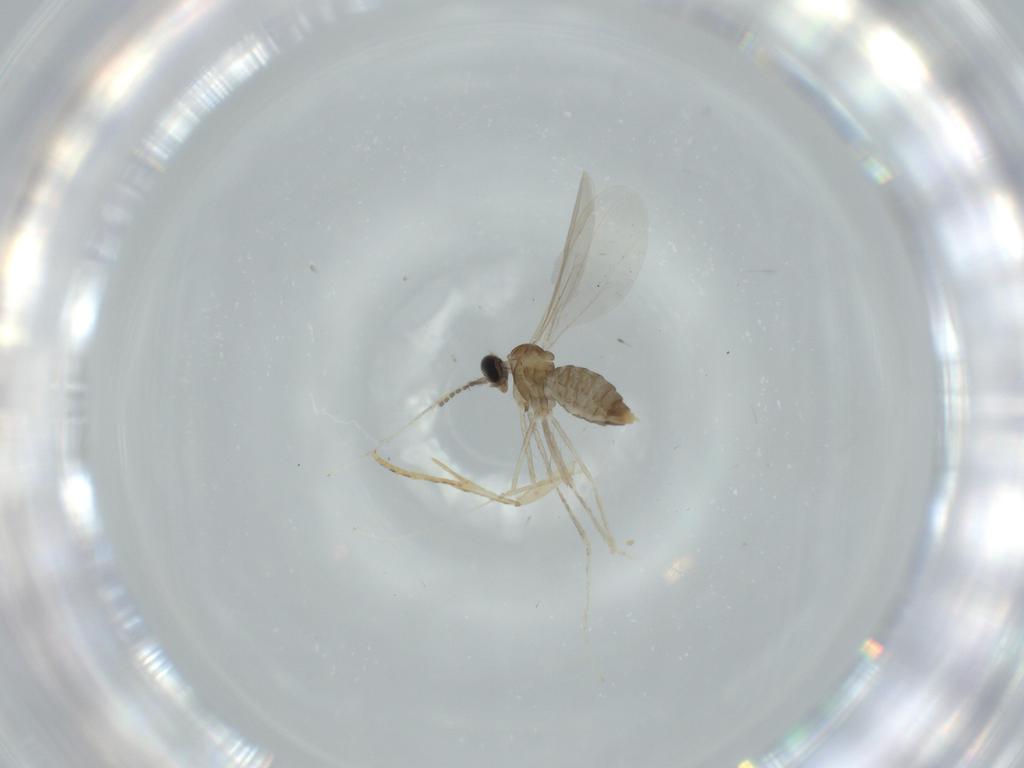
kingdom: Animalia
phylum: Arthropoda
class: Insecta
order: Diptera
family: Cecidomyiidae
